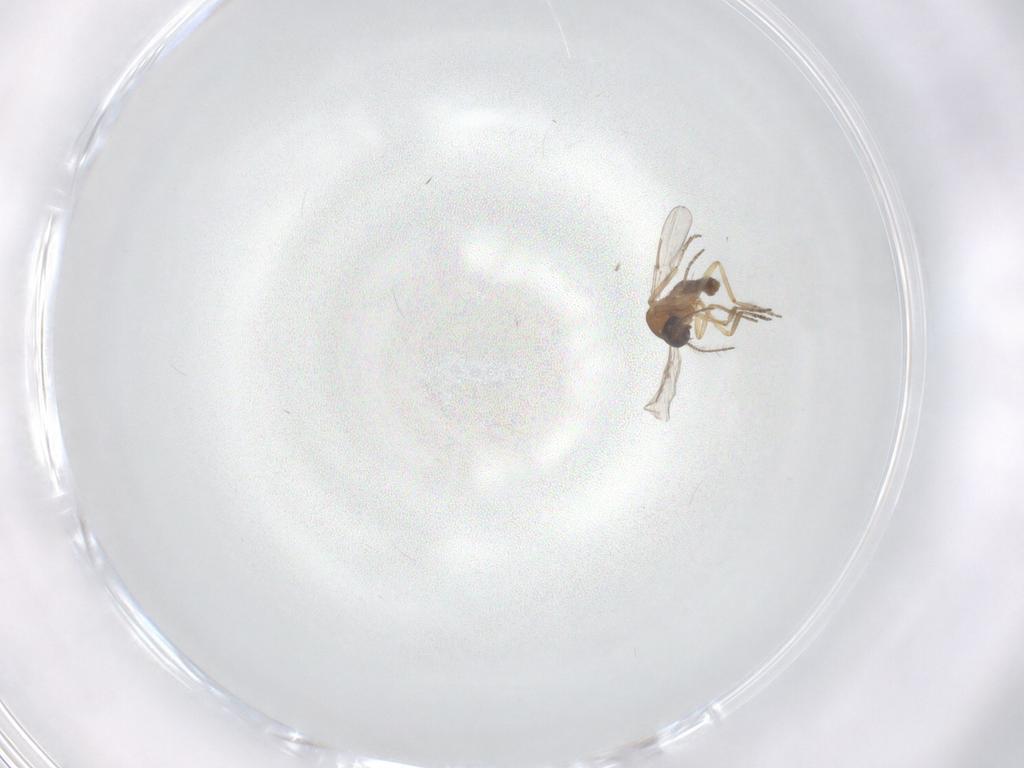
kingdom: Animalia
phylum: Arthropoda
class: Insecta
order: Diptera
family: Ceratopogonidae
